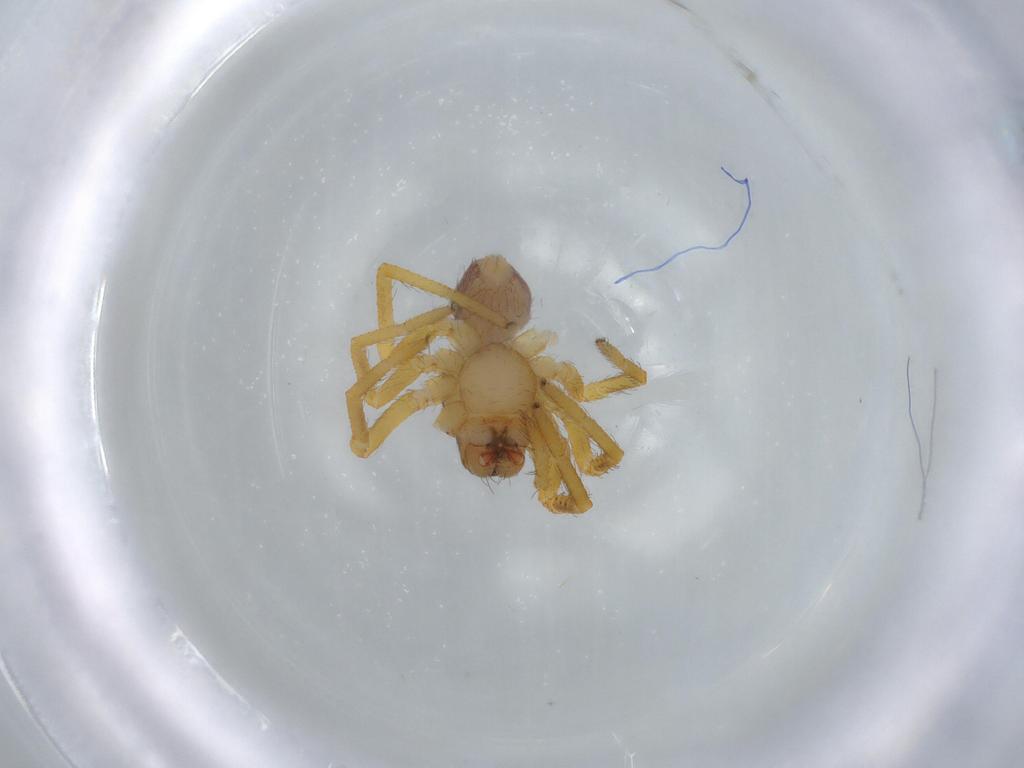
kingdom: Animalia
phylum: Arthropoda
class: Arachnida
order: Araneae
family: Caponiidae
